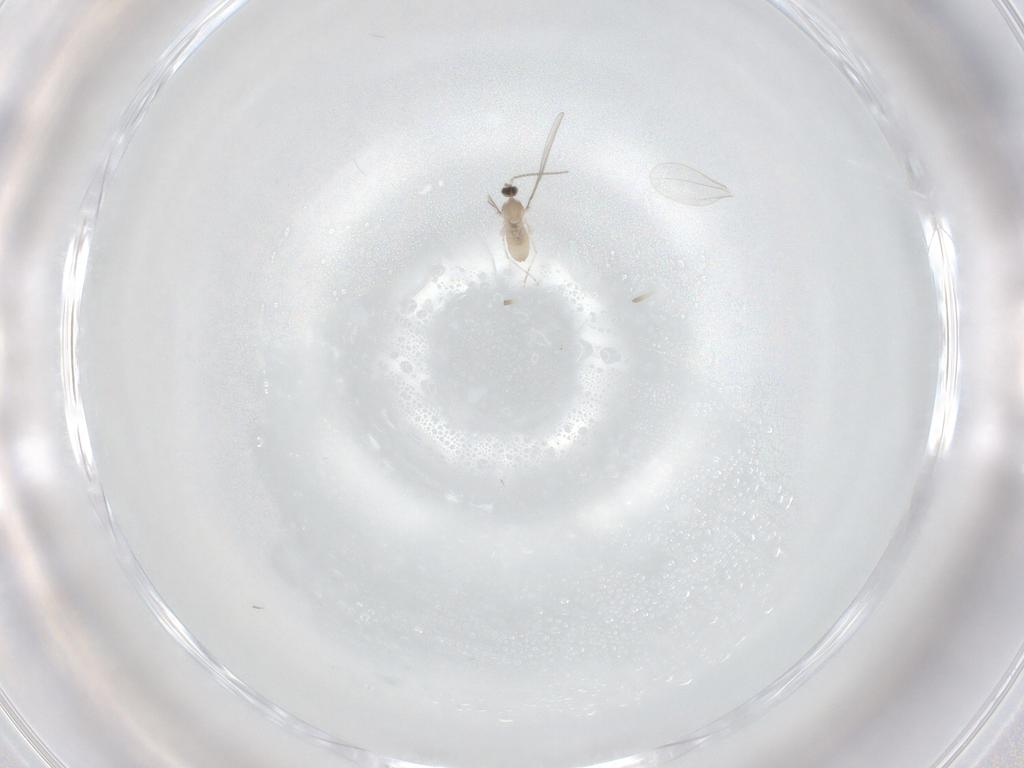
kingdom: Animalia
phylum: Arthropoda
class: Insecta
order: Diptera
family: Cecidomyiidae
